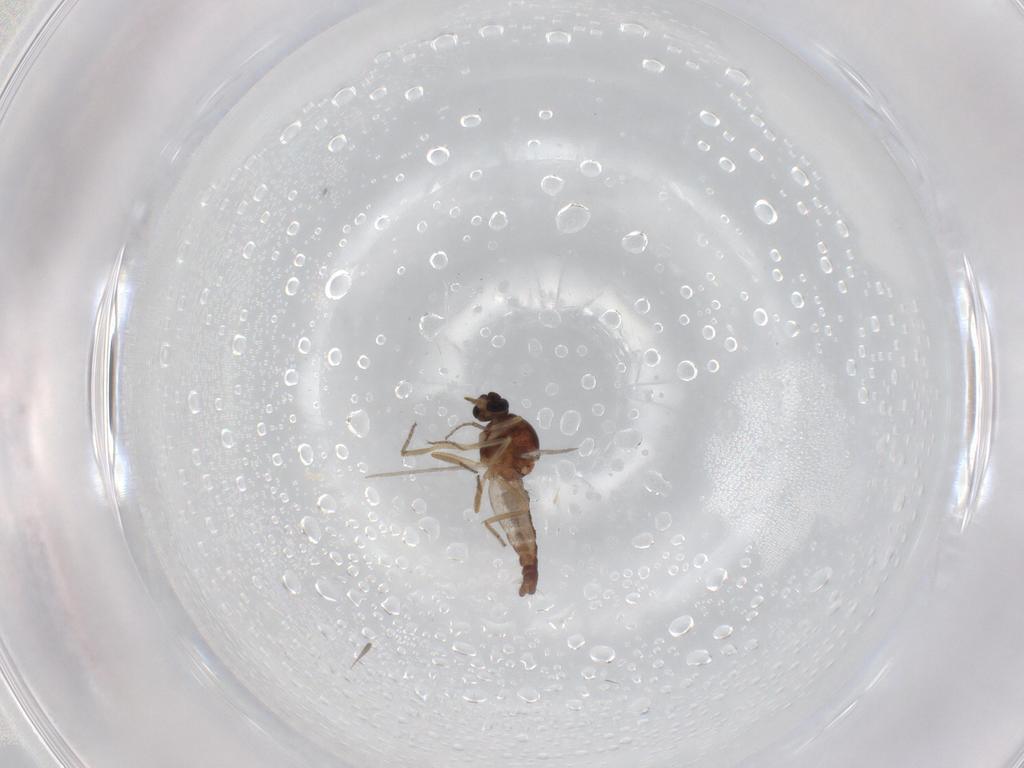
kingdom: Animalia
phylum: Arthropoda
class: Insecta
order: Diptera
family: Ceratopogonidae
